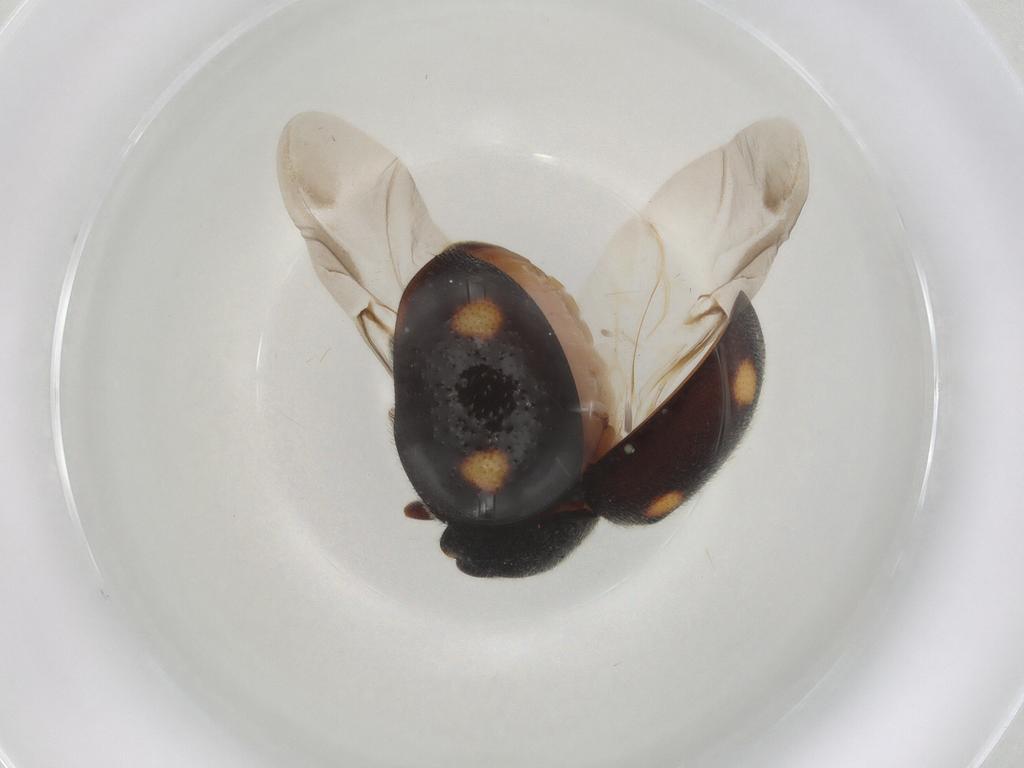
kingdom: Animalia
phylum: Arthropoda
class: Insecta
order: Coleoptera
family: Coccinellidae
